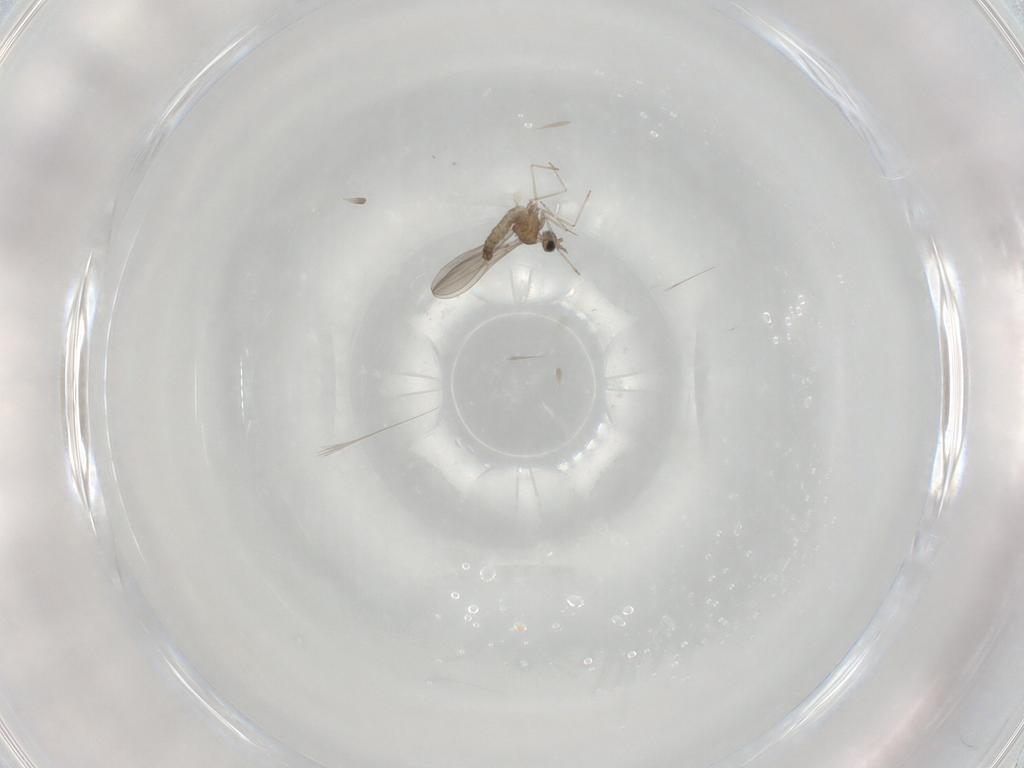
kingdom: Animalia
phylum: Arthropoda
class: Insecta
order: Diptera
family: Cecidomyiidae
